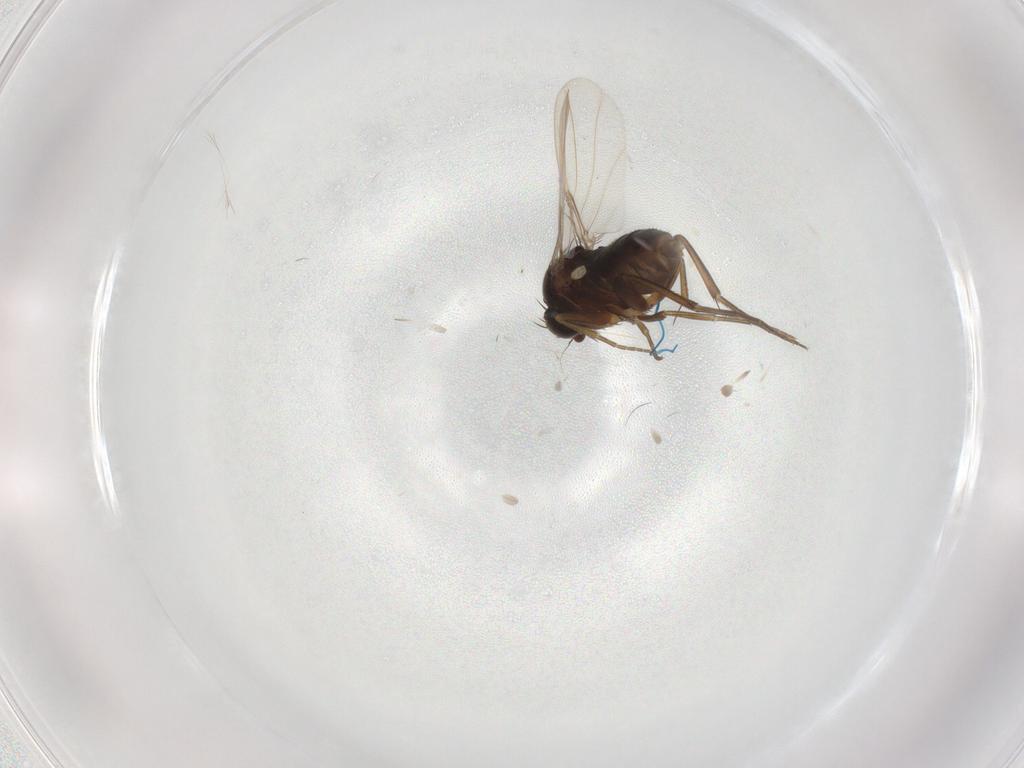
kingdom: Animalia
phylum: Arthropoda
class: Insecta
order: Diptera
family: Phoridae
